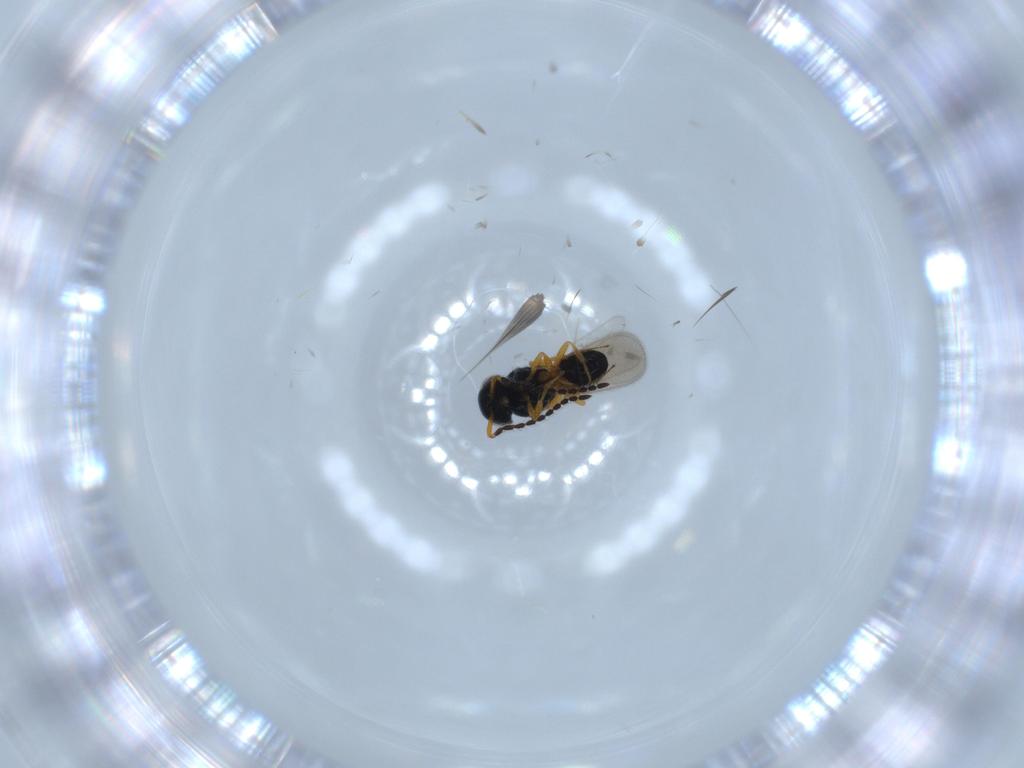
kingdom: Animalia
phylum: Arthropoda
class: Insecta
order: Hymenoptera
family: Scelionidae
